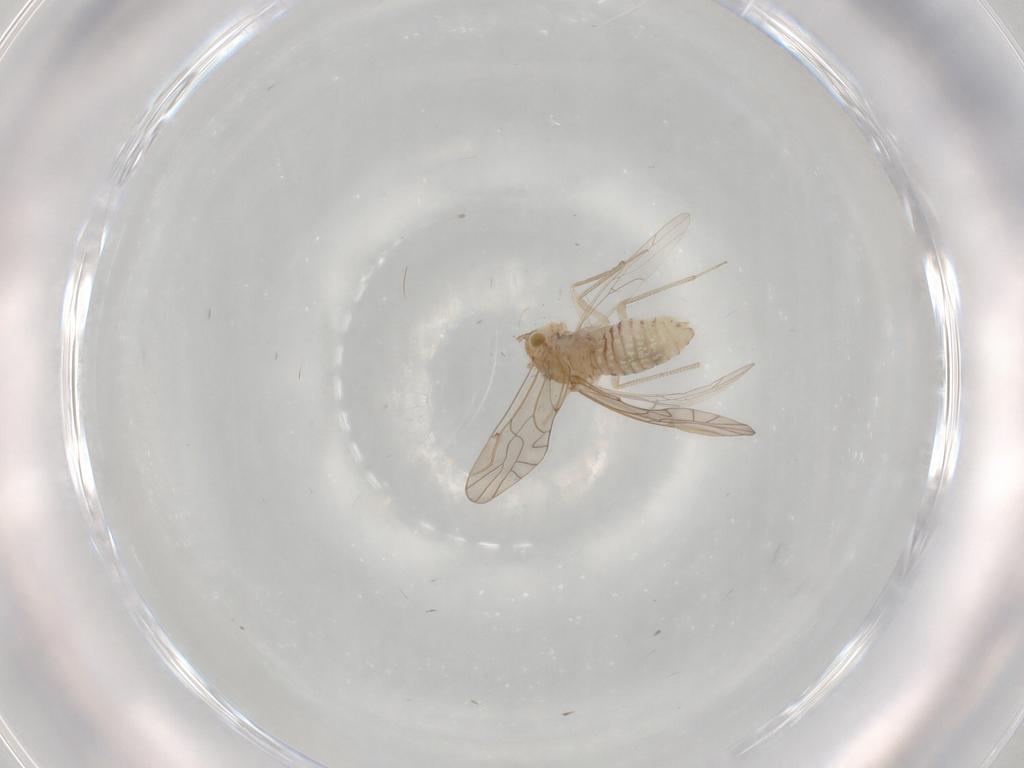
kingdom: Animalia
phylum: Arthropoda
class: Insecta
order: Psocodea
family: Lachesillidae
